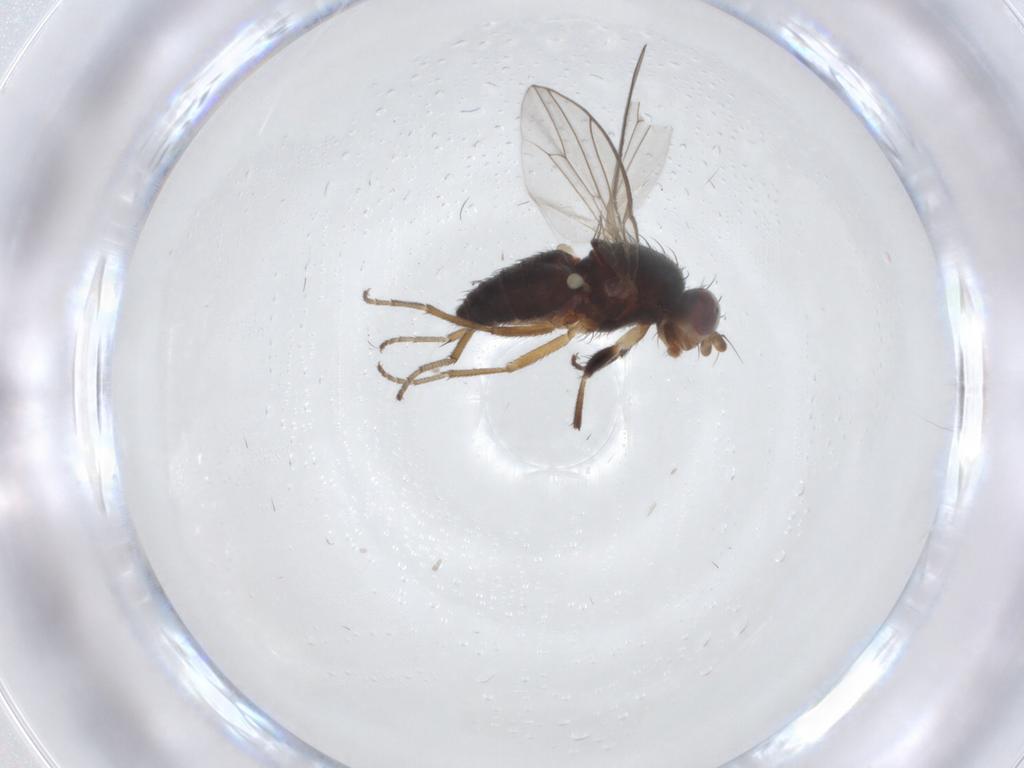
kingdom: Animalia
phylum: Arthropoda
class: Insecta
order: Diptera
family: Heleomyzidae
